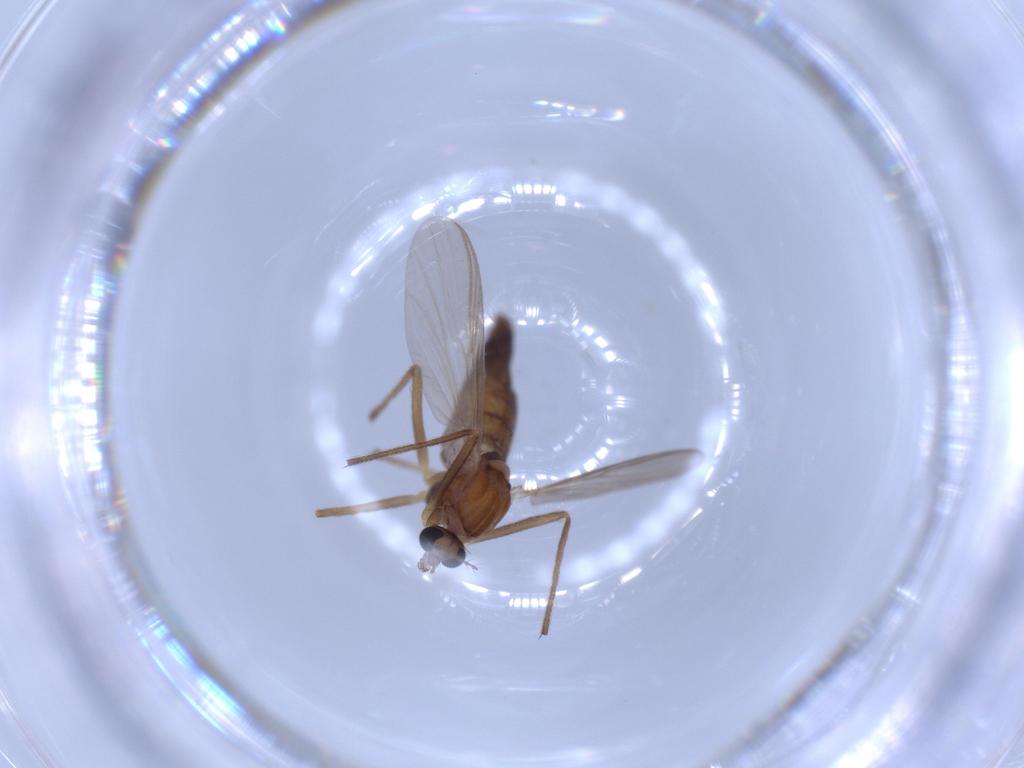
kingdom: Animalia
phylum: Arthropoda
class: Insecta
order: Diptera
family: Chironomidae
